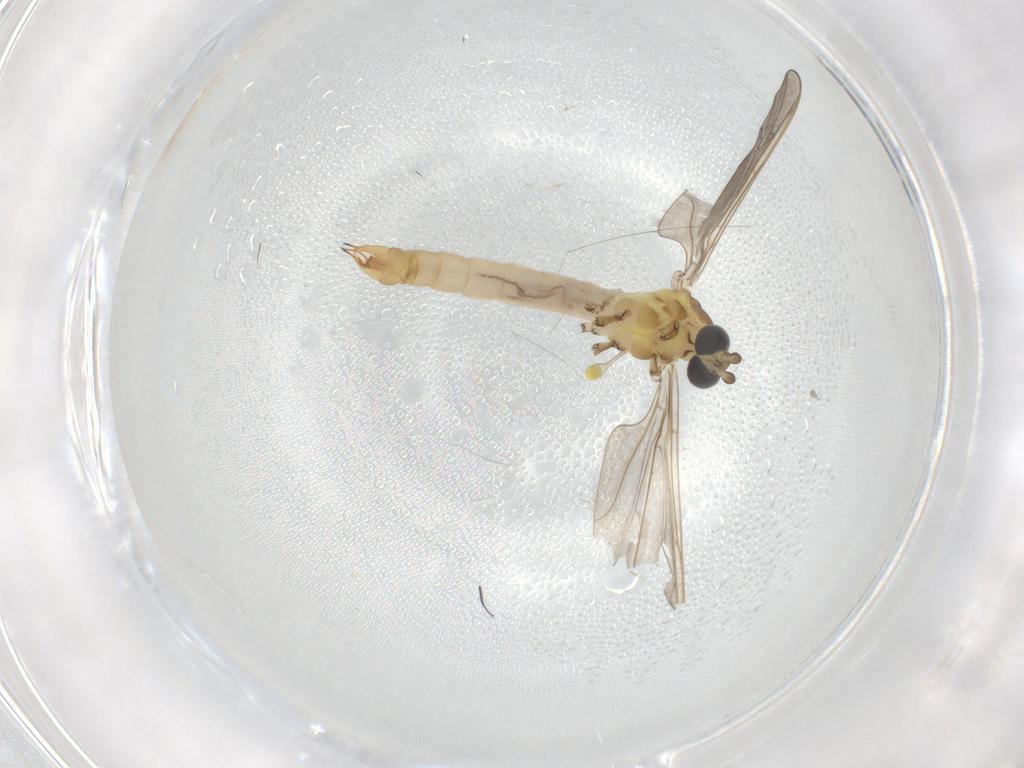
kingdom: Animalia
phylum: Arthropoda
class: Insecta
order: Diptera
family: Limoniidae
